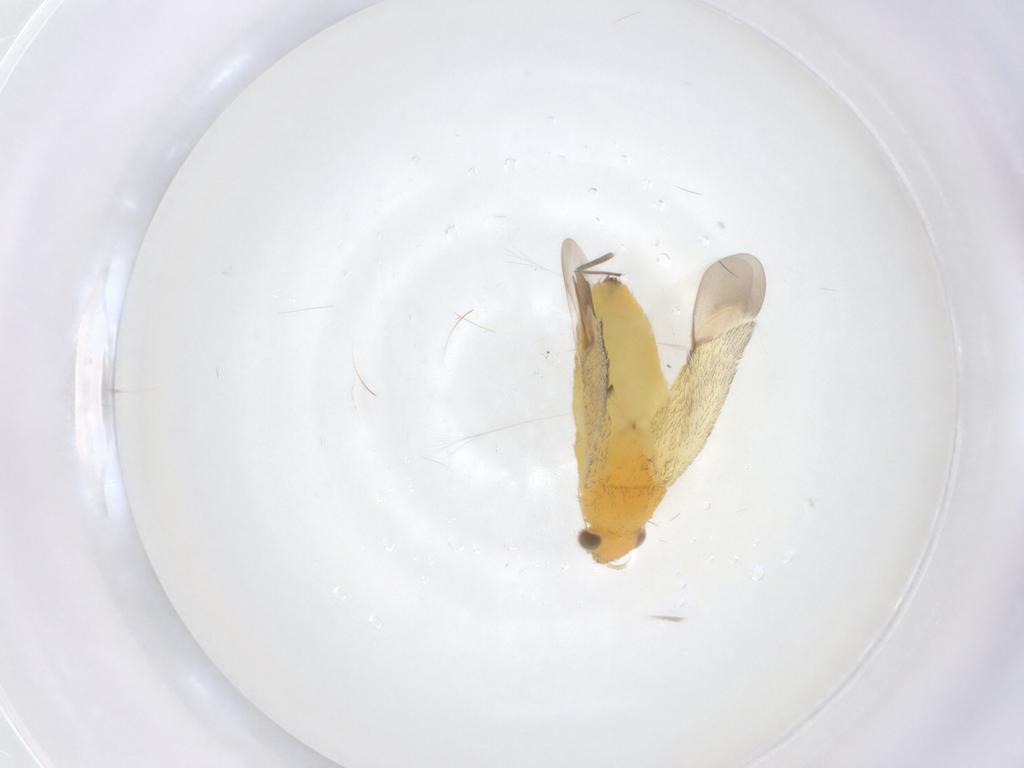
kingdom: Animalia
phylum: Arthropoda
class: Insecta
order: Hemiptera
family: Miridae
